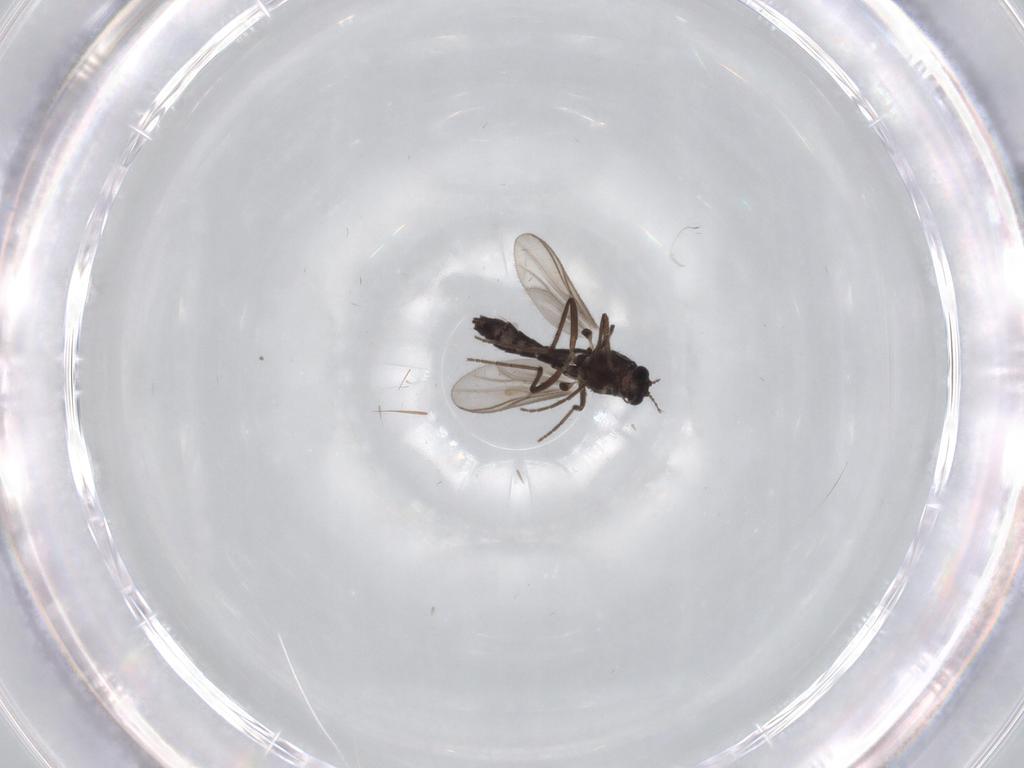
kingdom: Animalia
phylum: Arthropoda
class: Insecta
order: Diptera
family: Chironomidae
